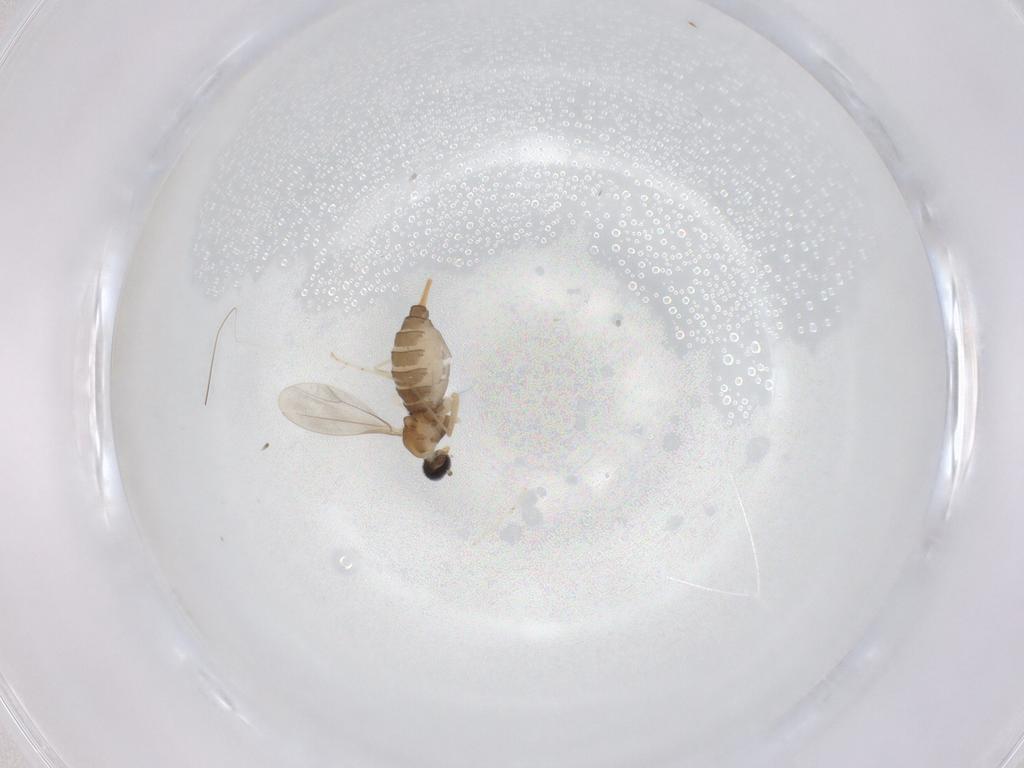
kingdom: Animalia
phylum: Arthropoda
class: Insecta
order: Diptera
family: Cecidomyiidae
